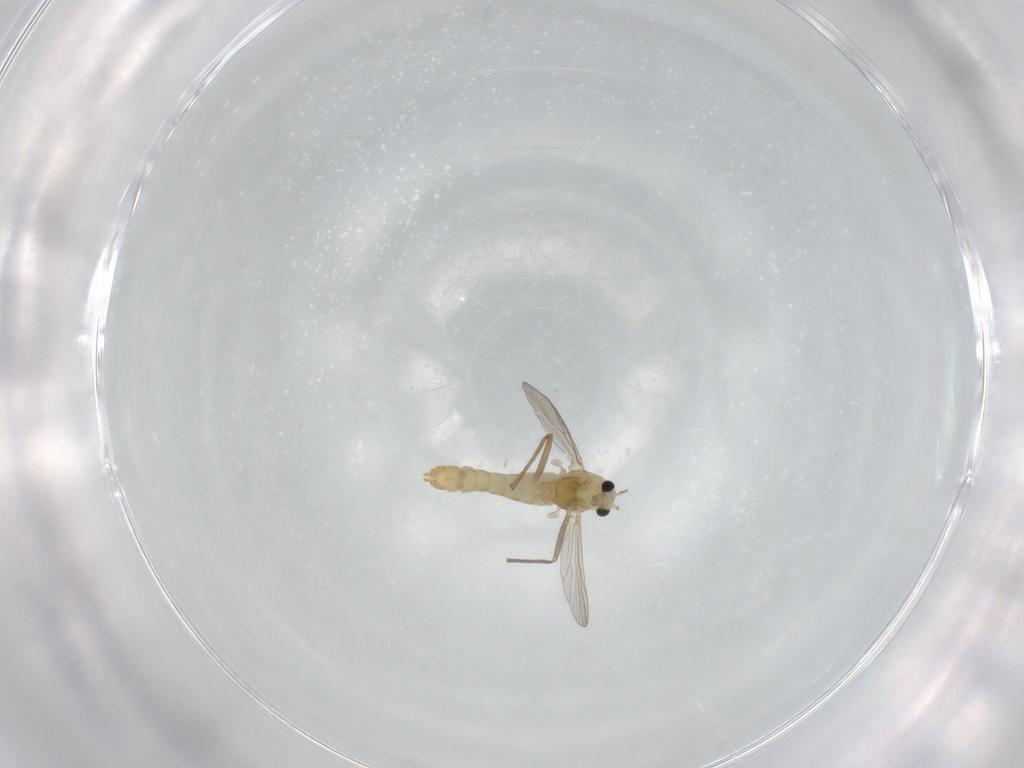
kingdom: Animalia
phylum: Arthropoda
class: Insecta
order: Diptera
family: Chironomidae
